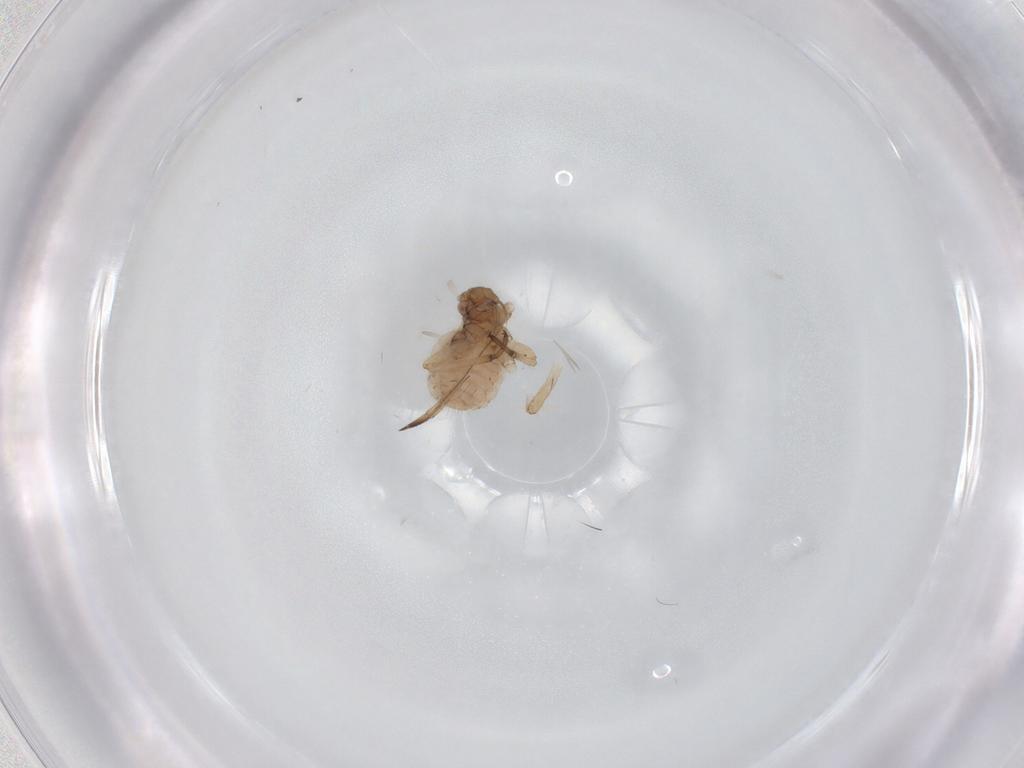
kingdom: Animalia
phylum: Arthropoda
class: Insecta
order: Hemiptera
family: Aphididae
